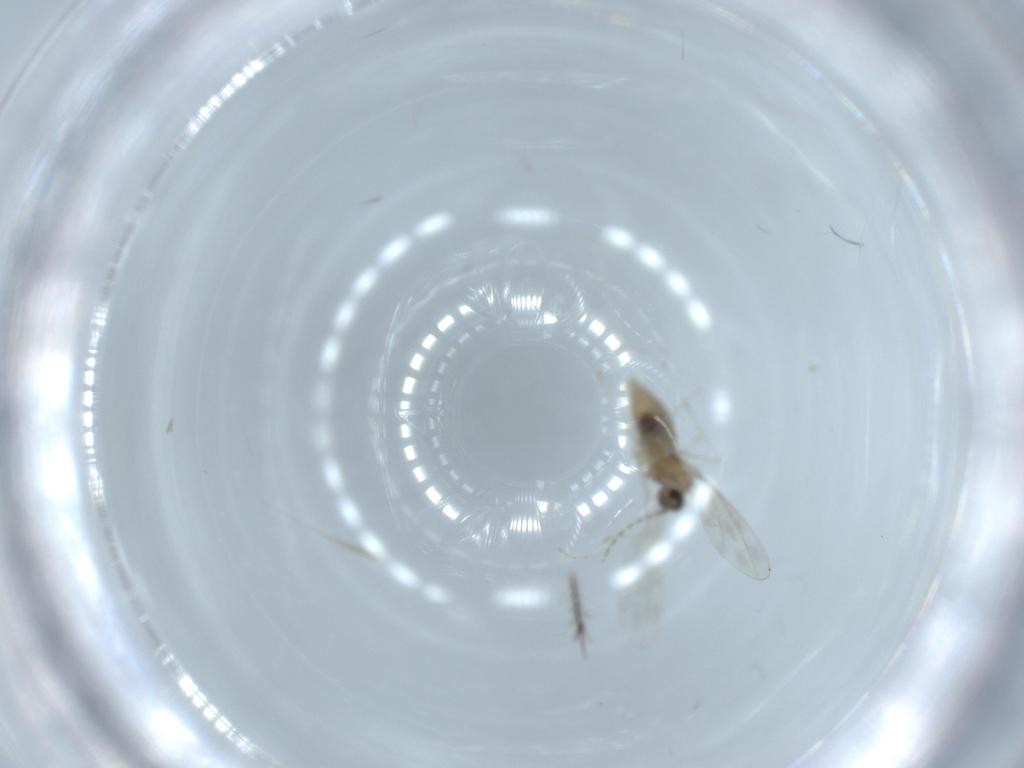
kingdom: Animalia
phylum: Arthropoda
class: Insecta
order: Diptera
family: Cecidomyiidae
